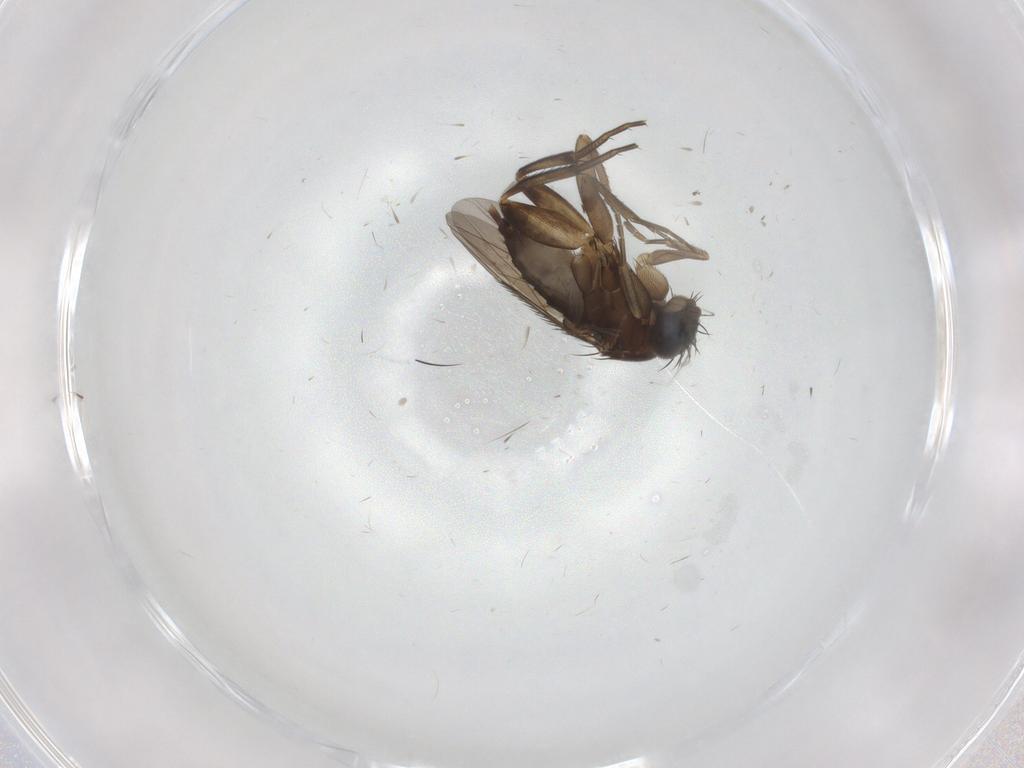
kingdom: Animalia
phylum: Arthropoda
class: Insecta
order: Diptera
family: Phoridae
